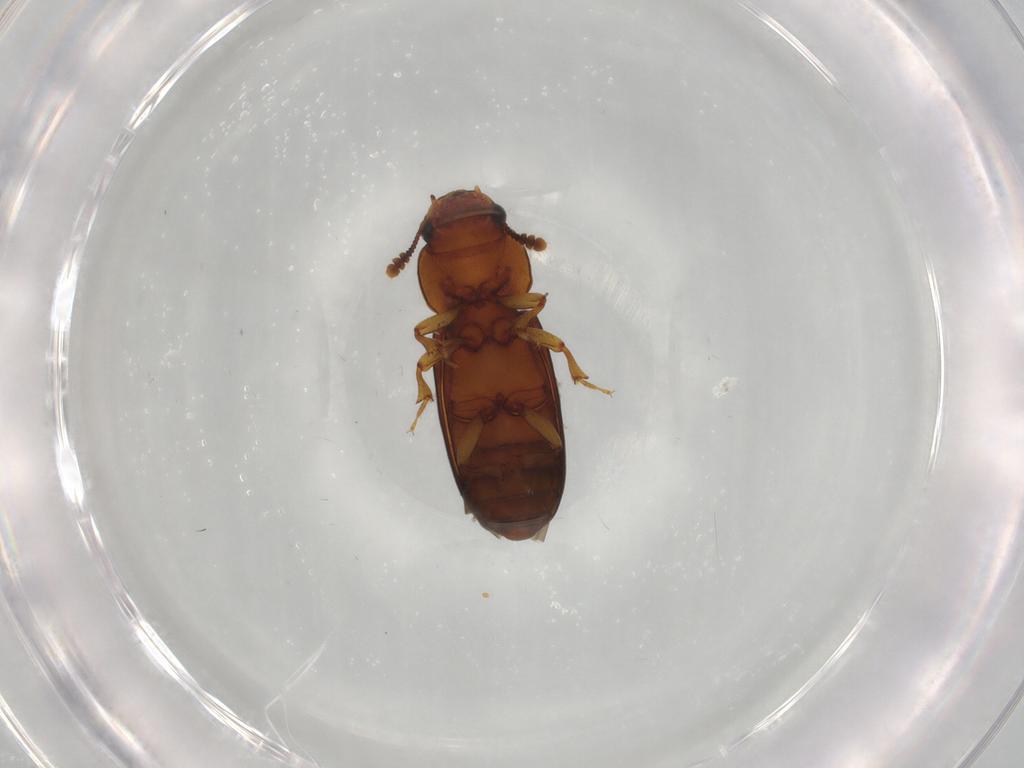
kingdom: Animalia
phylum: Arthropoda
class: Insecta
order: Coleoptera
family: Salpingidae
